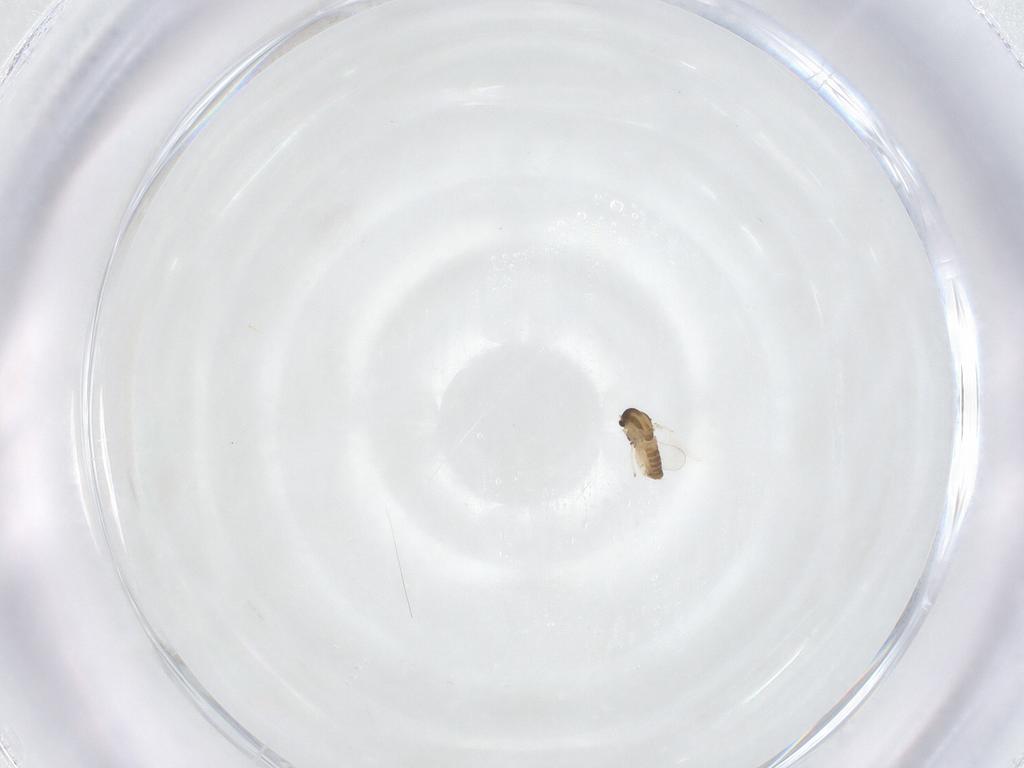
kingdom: Animalia
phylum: Arthropoda
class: Insecta
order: Diptera
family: Chironomidae
